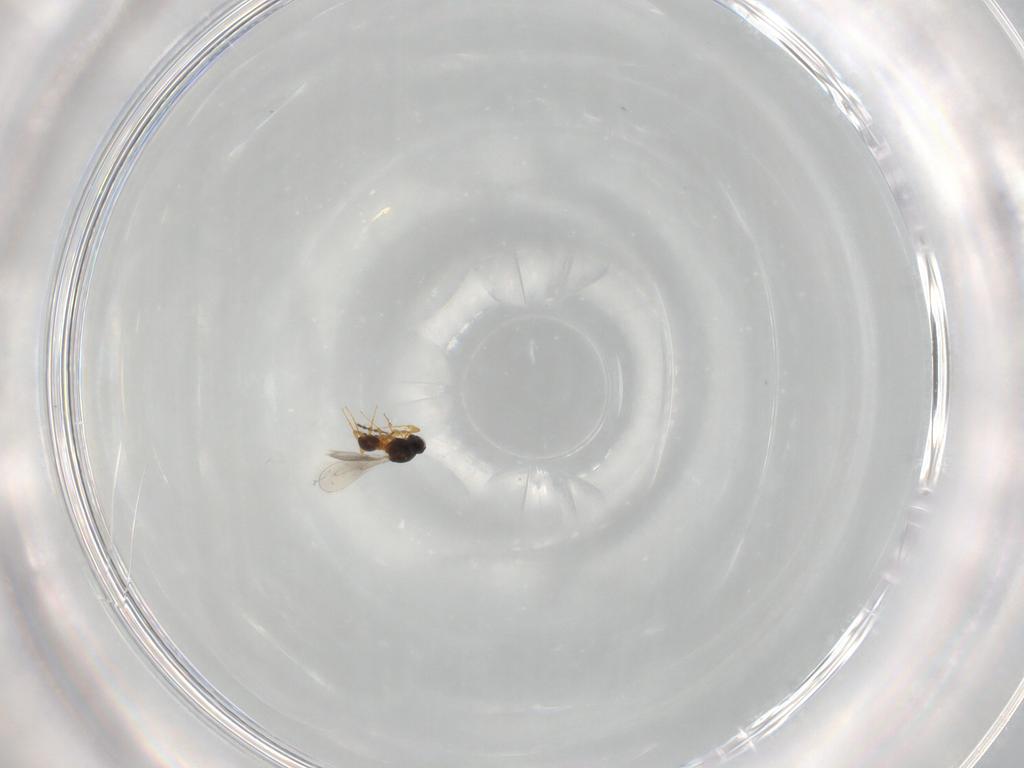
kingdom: Animalia
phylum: Arthropoda
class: Insecta
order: Hymenoptera
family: Platygastridae
